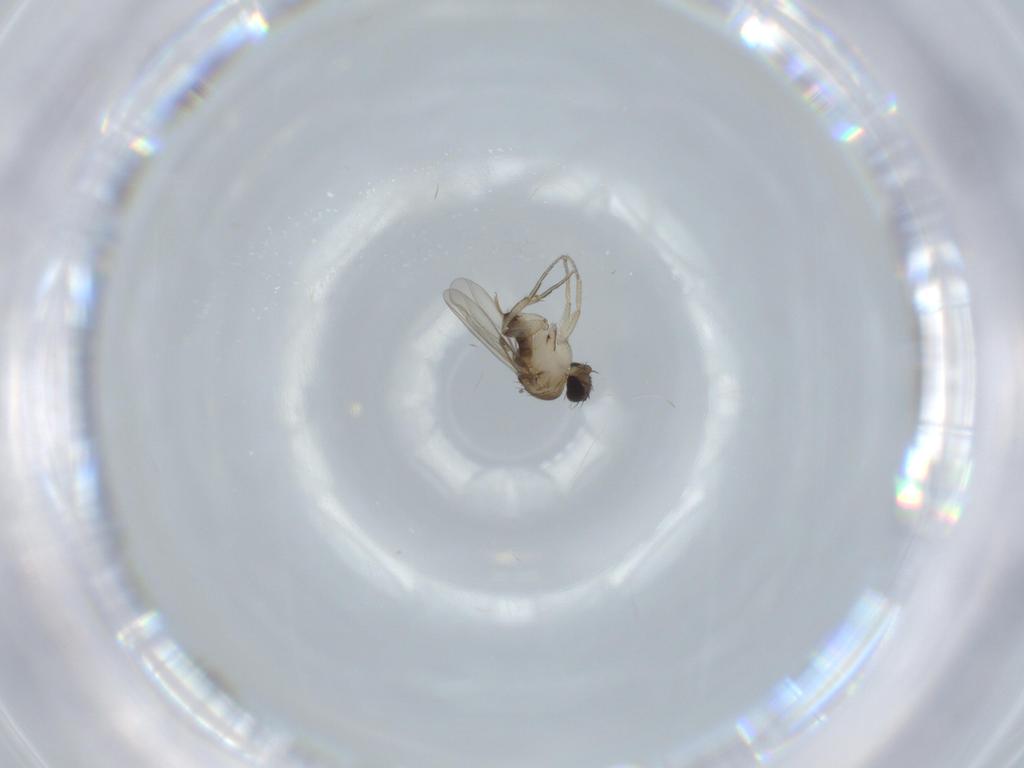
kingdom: Animalia
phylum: Arthropoda
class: Insecta
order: Diptera
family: Phoridae
